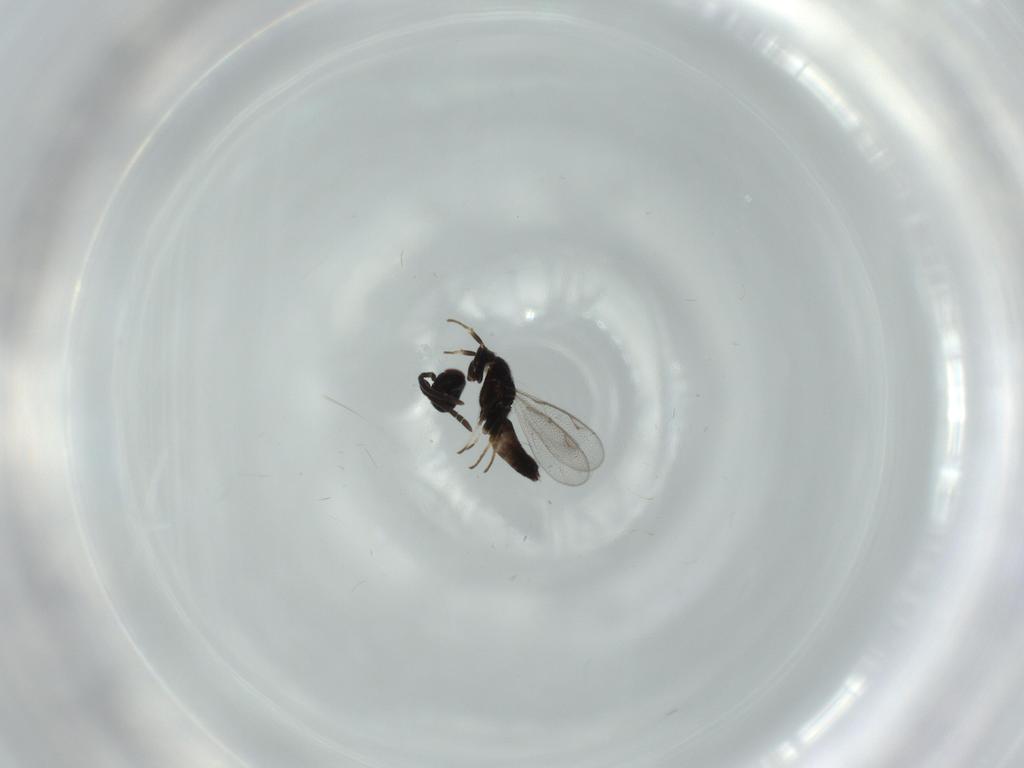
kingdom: Animalia
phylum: Arthropoda
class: Insecta
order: Hymenoptera
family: Eupelmidae
